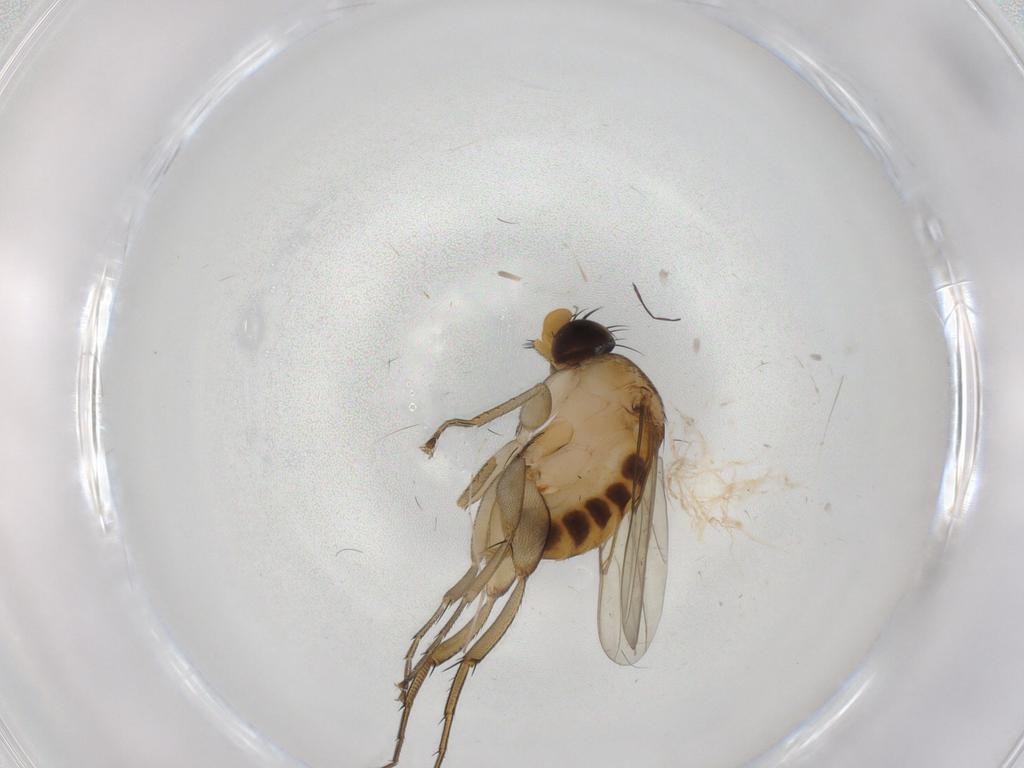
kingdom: Animalia
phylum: Arthropoda
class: Insecta
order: Diptera
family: Phoridae
